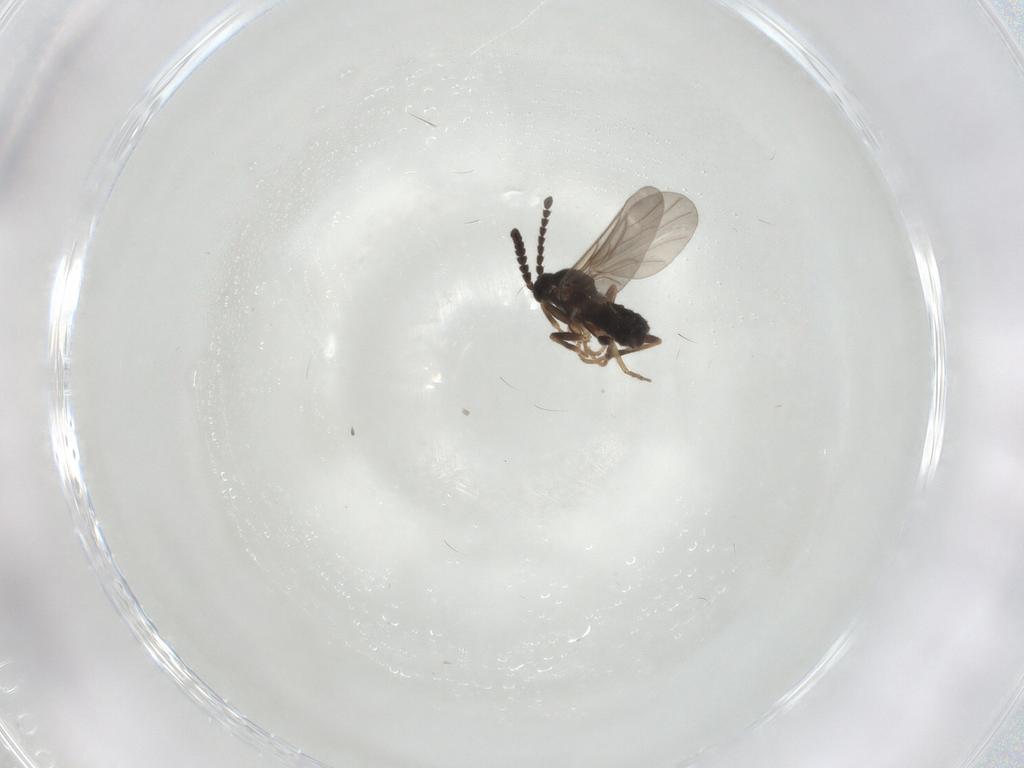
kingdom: Animalia
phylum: Arthropoda
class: Insecta
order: Diptera
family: Scatopsidae
